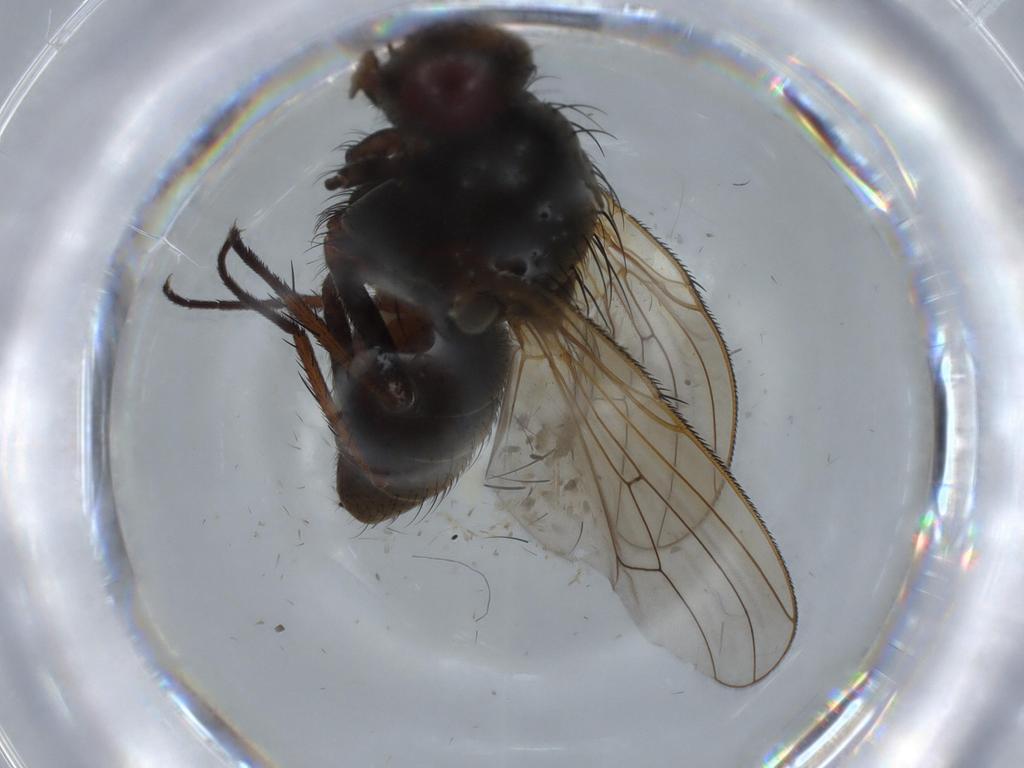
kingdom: Animalia
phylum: Arthropoda
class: Insecta
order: Diptera
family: Anthomyiidae
